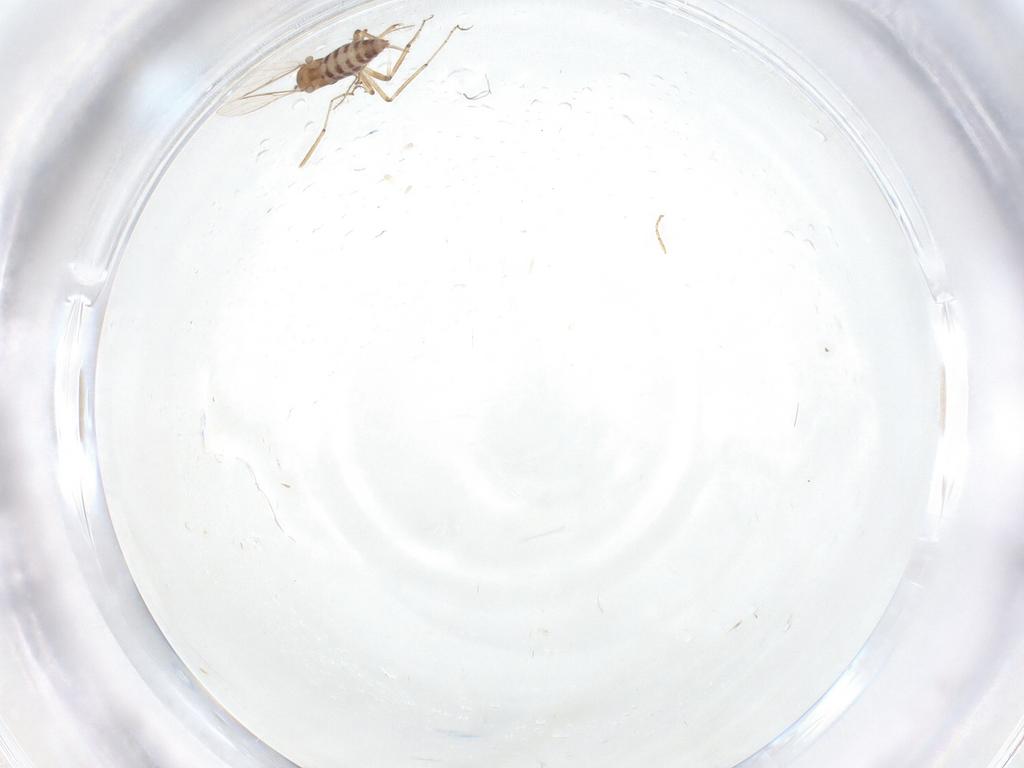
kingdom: Animalia
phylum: Arthropoda
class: Insecta
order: Diptera
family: Ceratopogonidae
